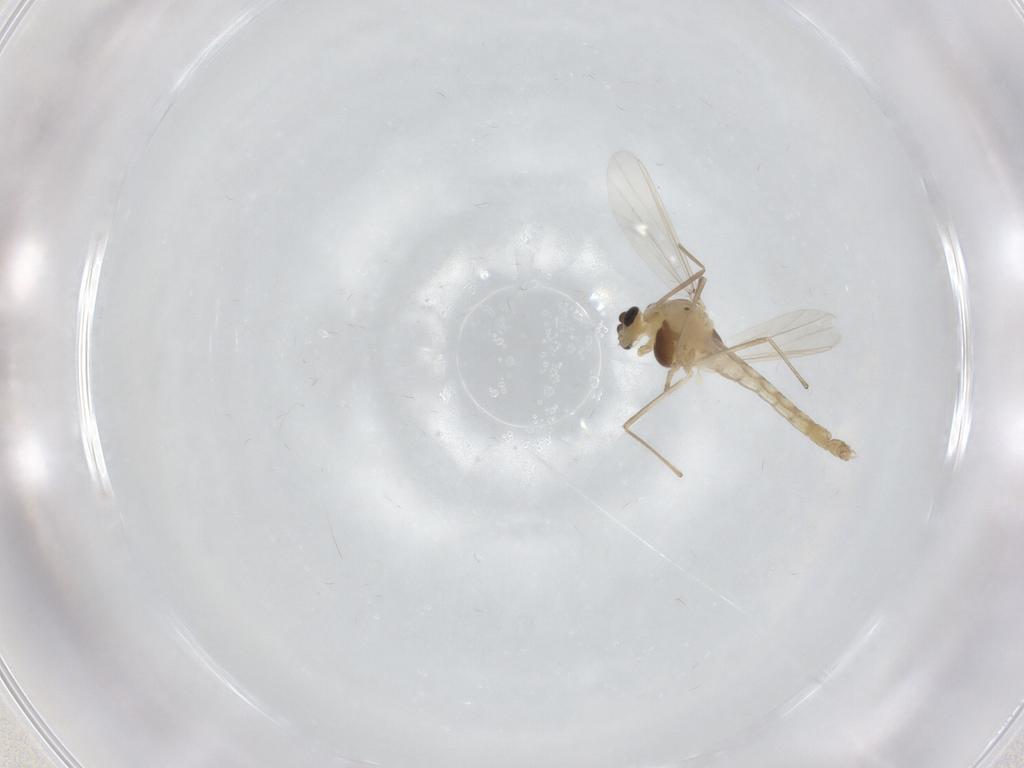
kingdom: Animalia
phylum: Arthropoda
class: Insecta
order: Diptera
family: Chironomidae
